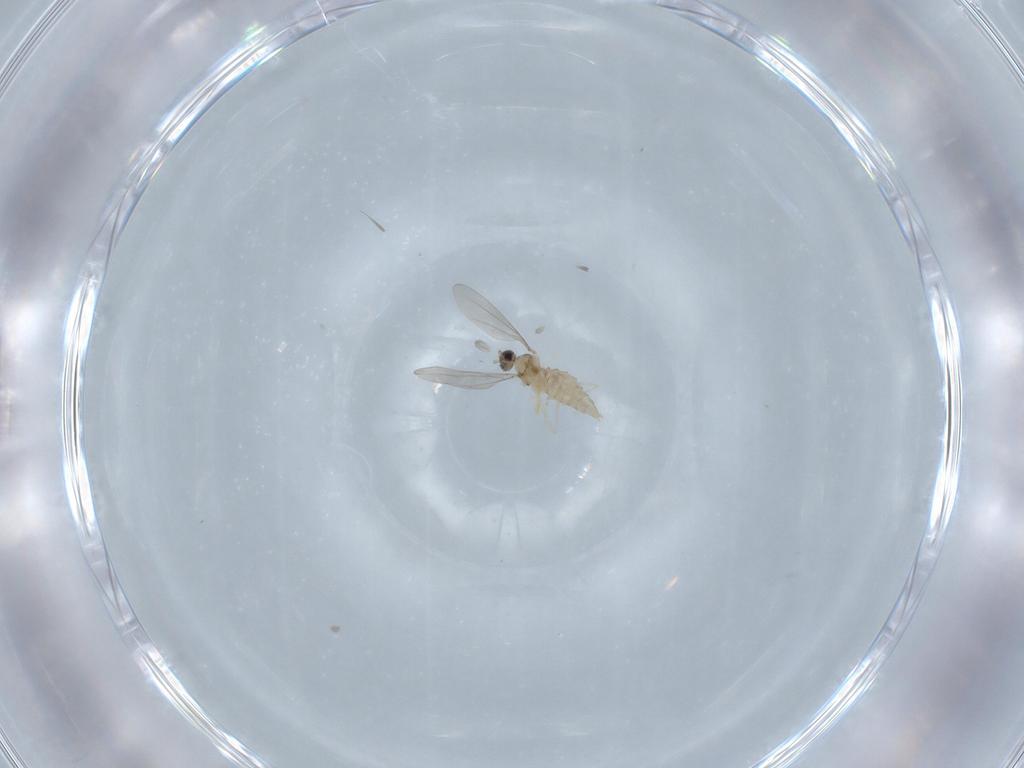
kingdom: Animalia
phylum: Arthropoda
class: Insecta
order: Diptera
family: Cecidomyiidae
